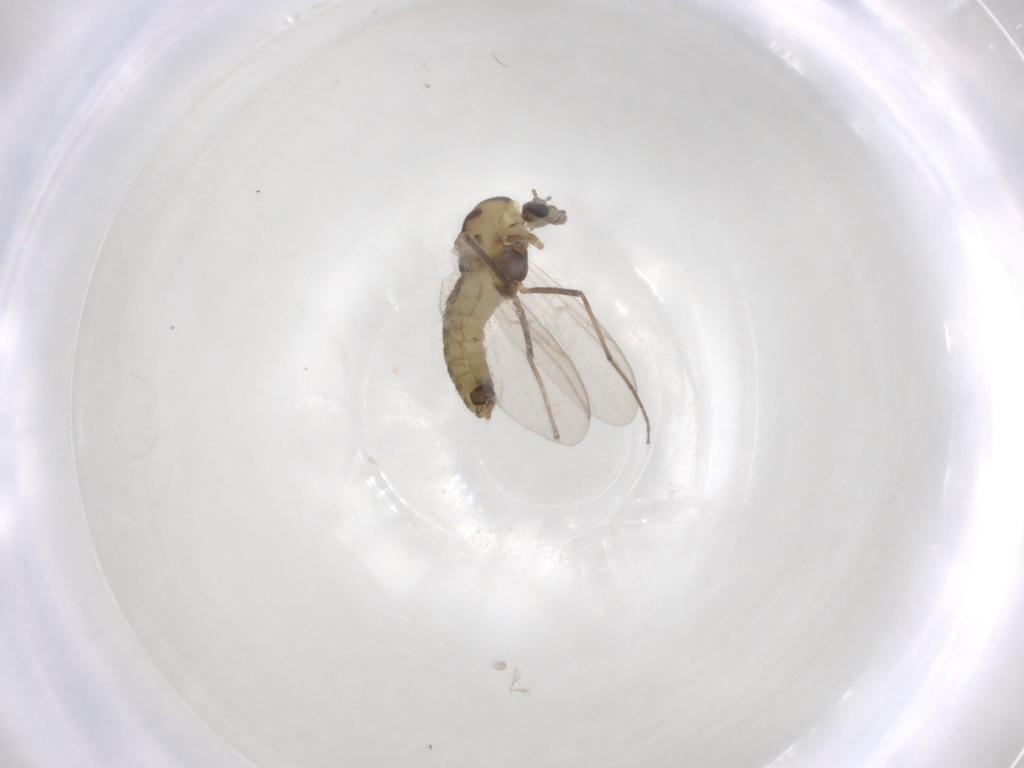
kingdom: Animalia
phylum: Arthropoda
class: Insecta
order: Diptera
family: Chironomidae
